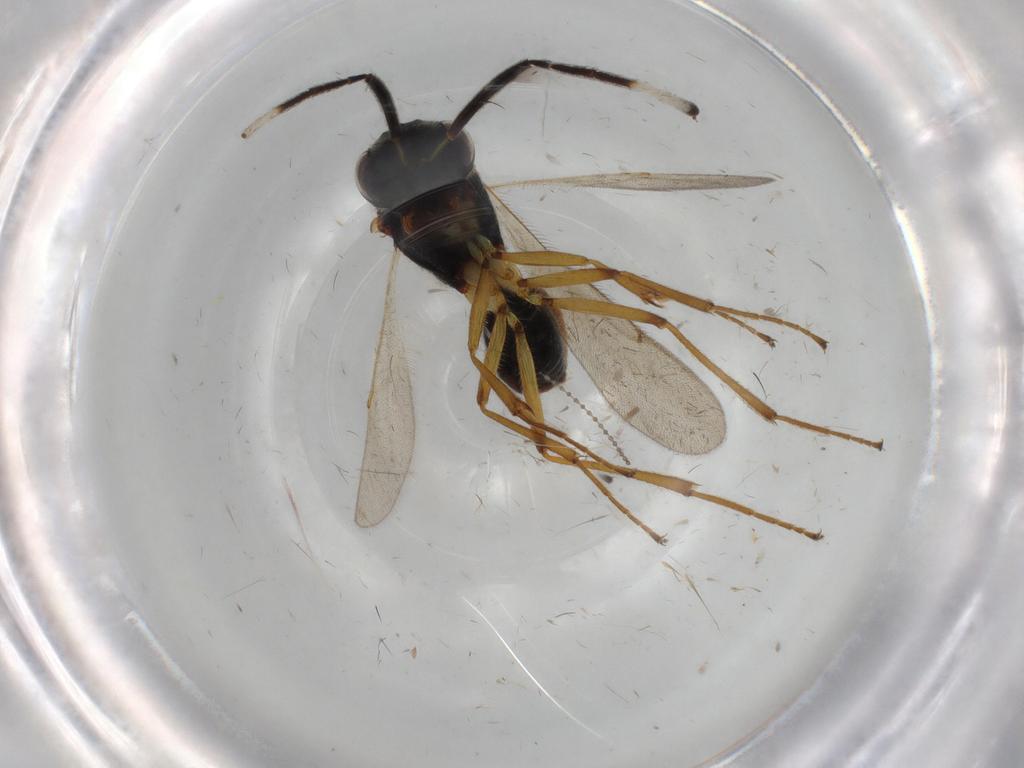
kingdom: Animalia
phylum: Arthropoda
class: Insecta
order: Hymenoptera
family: Scelionidae
